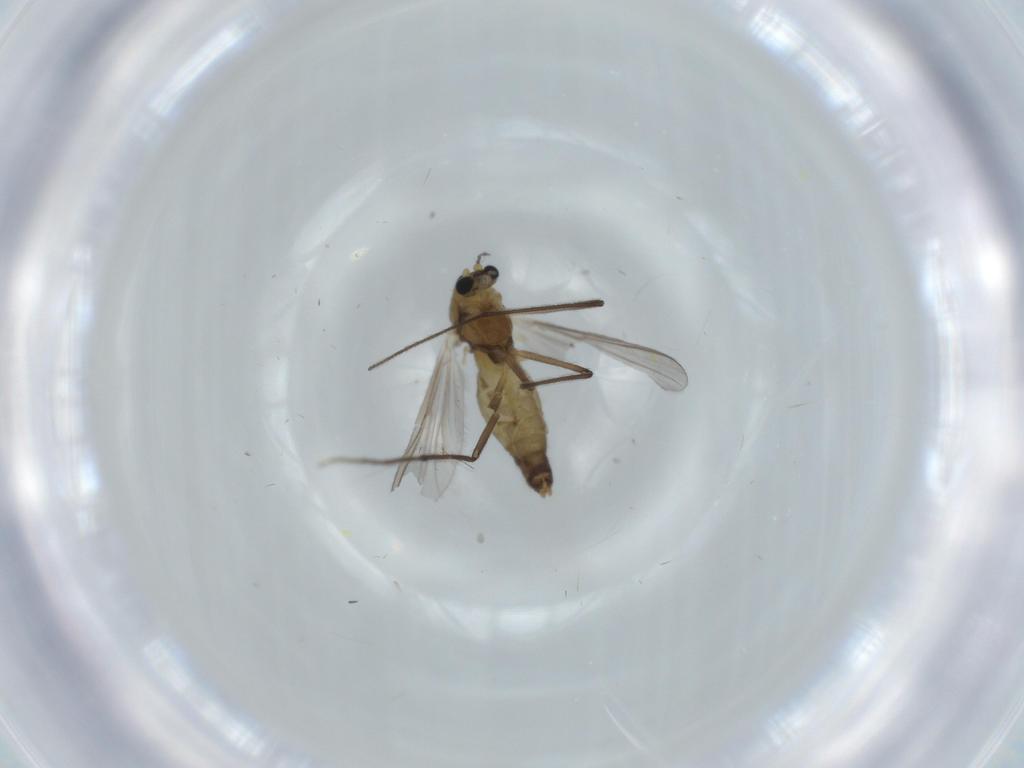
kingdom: Animalia
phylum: Arthropoda
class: Insecta
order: Diptera
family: Chironomidae
